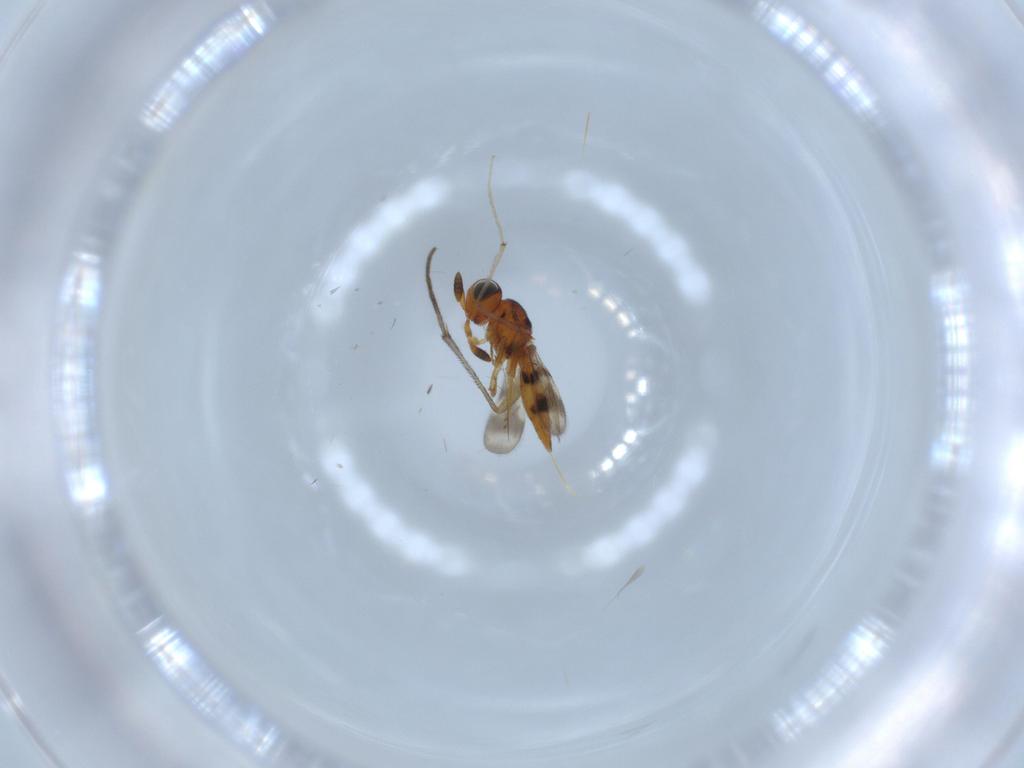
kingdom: Animalia
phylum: Arthropoda
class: Insecta
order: Hymenoptera
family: Scelionidae
